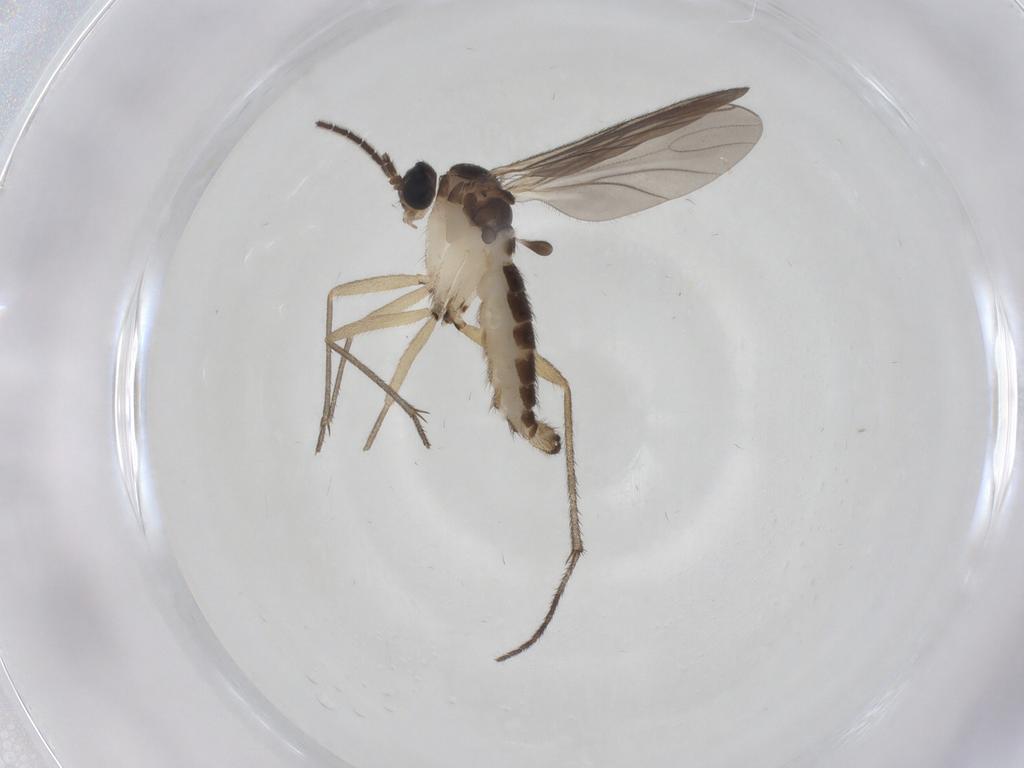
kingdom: Animalia
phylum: Arthropoda
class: Insecta
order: Diptera
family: Sciaridae
